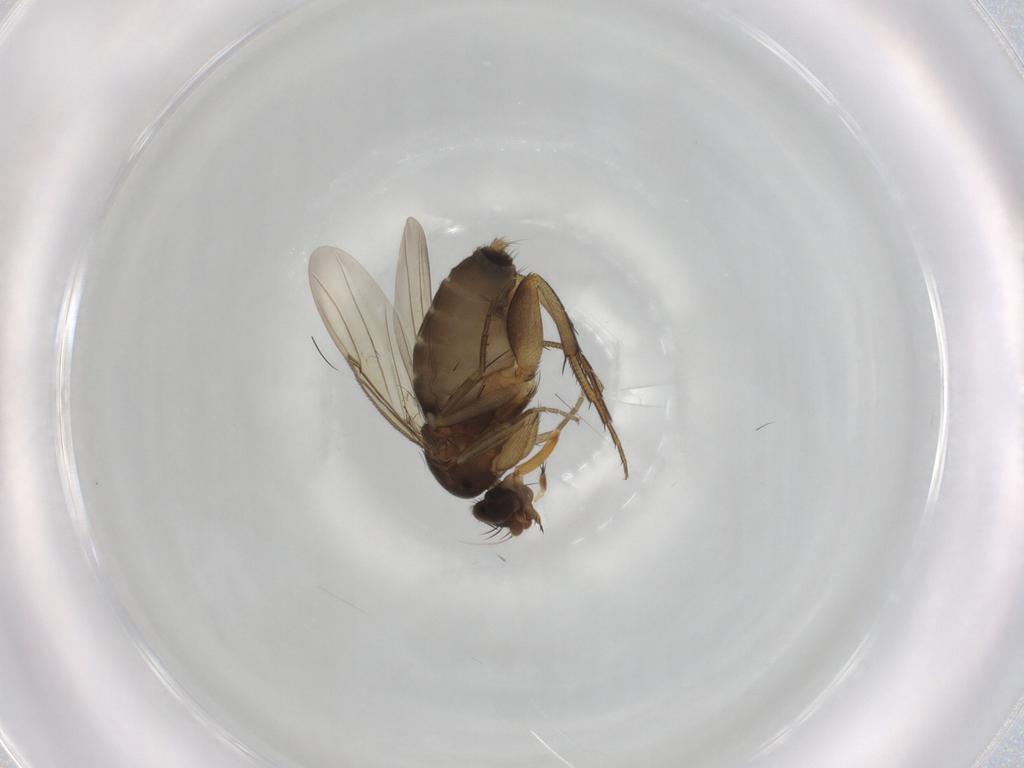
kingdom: Animalia
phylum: Arthropoda
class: Insecta
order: Diptera
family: Phoridae
